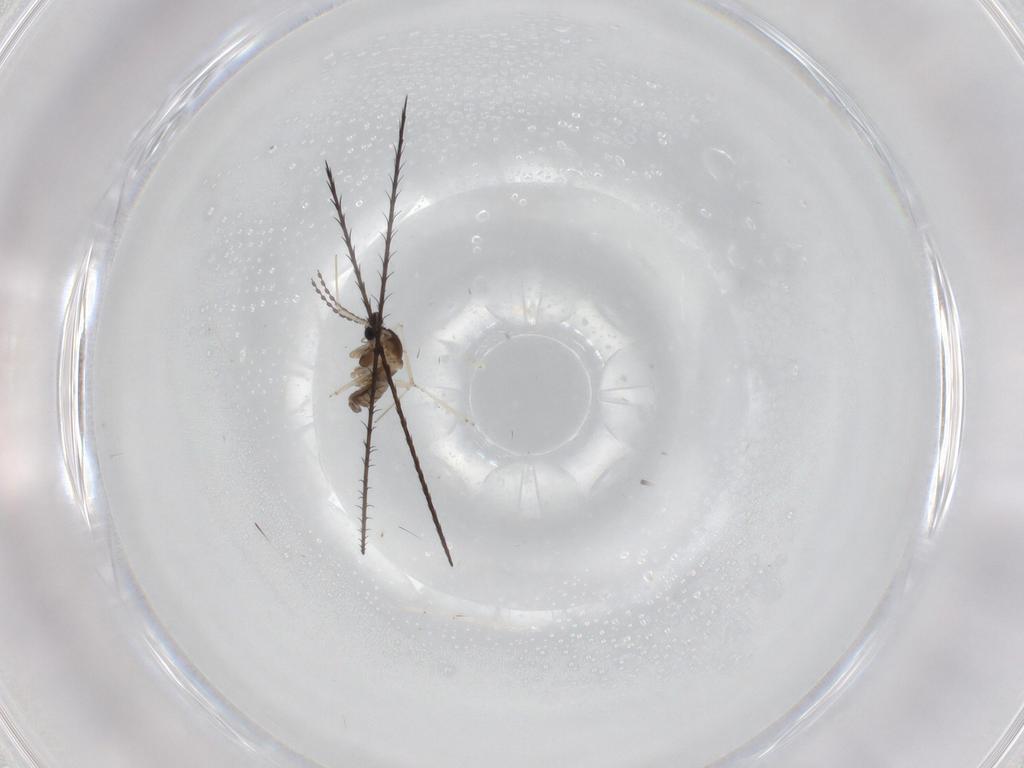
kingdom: Animalia
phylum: Arthropoda
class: Insecta
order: Diptera
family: Cecidomyiidae
